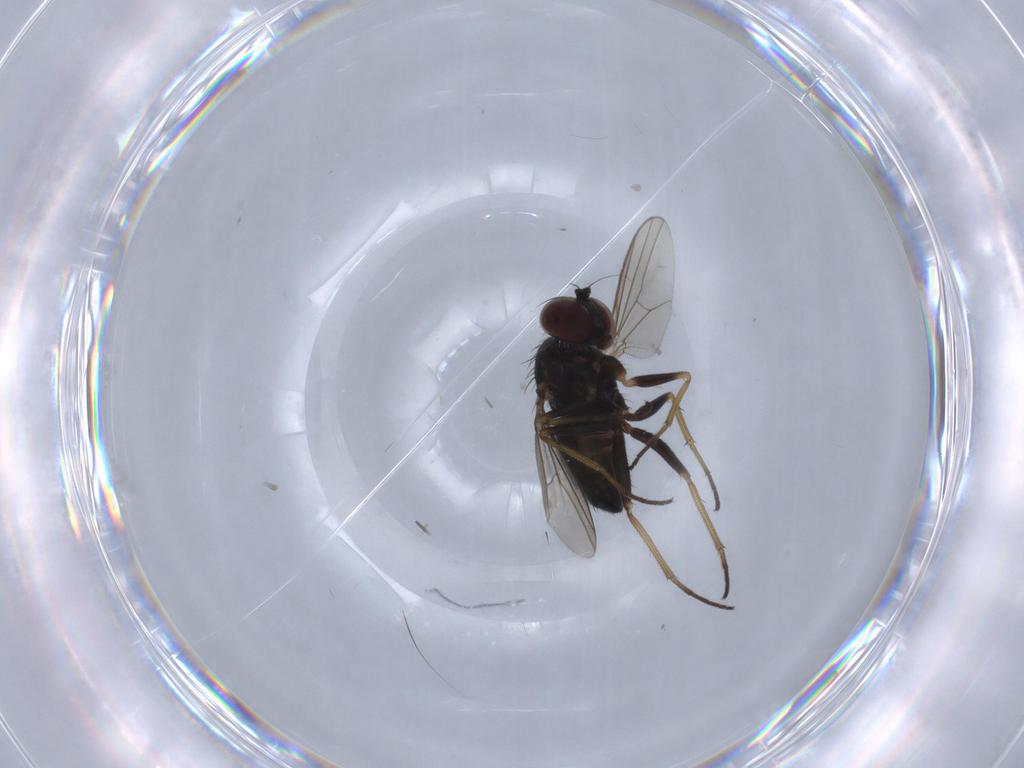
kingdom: Animalia
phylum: Arthropoda
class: Insecta
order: Diptera
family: Dolichopodidae
